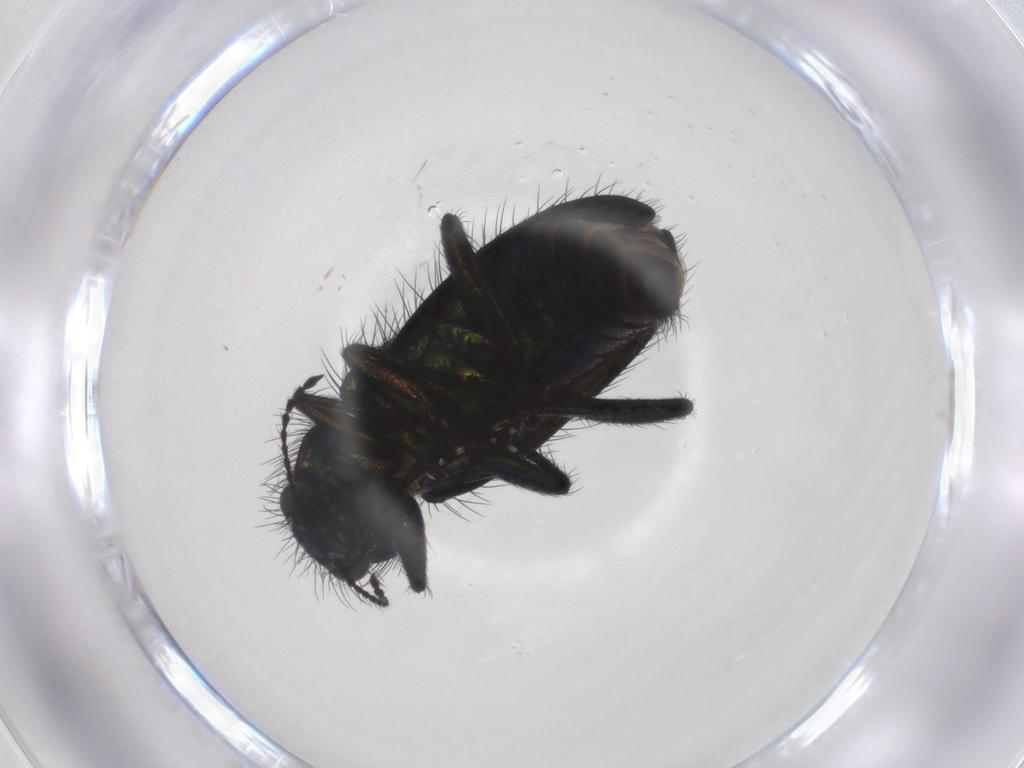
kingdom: Animalia
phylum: Arthropoda
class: Insecta
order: Coleoptera
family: Melyridae
